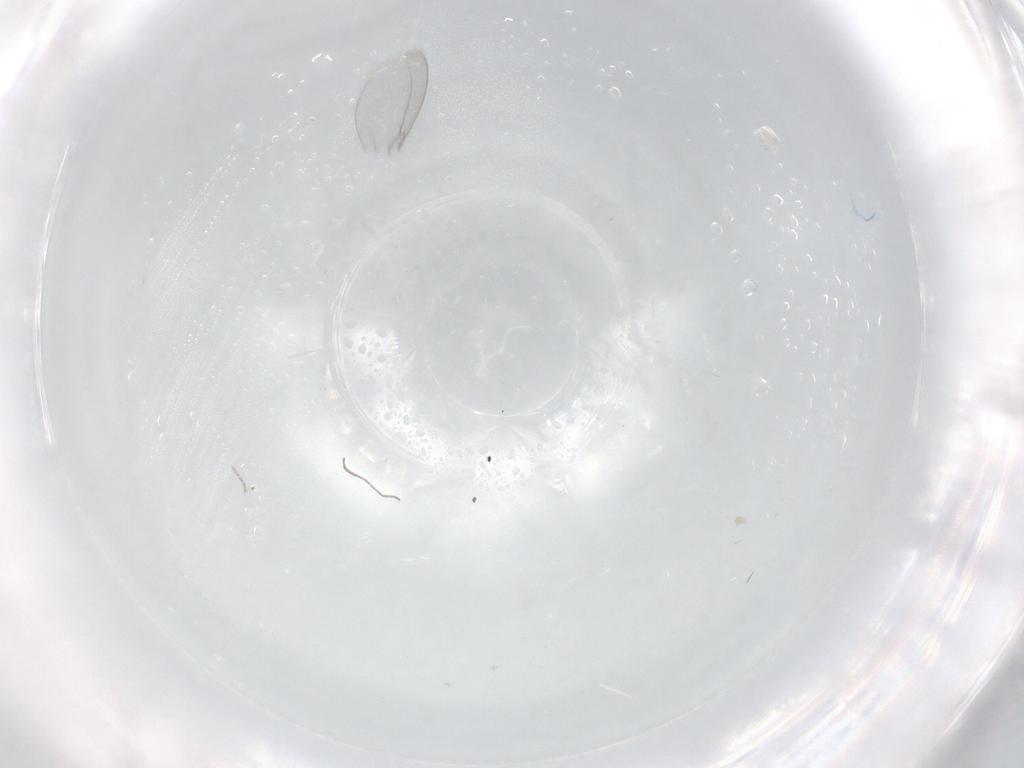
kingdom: Animalia
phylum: Arthropoda
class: Insecta
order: Diptera
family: Cecidomyiidae
